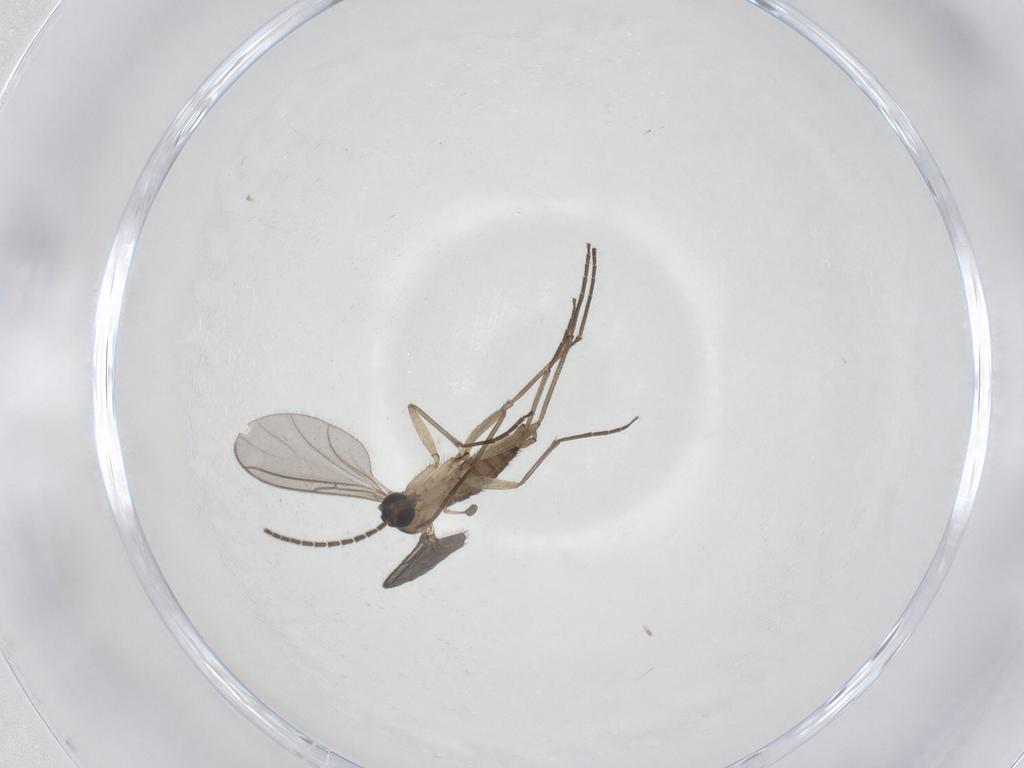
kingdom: Animalia
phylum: Arthropoda
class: Insecta
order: Diptera
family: Sciaridae
